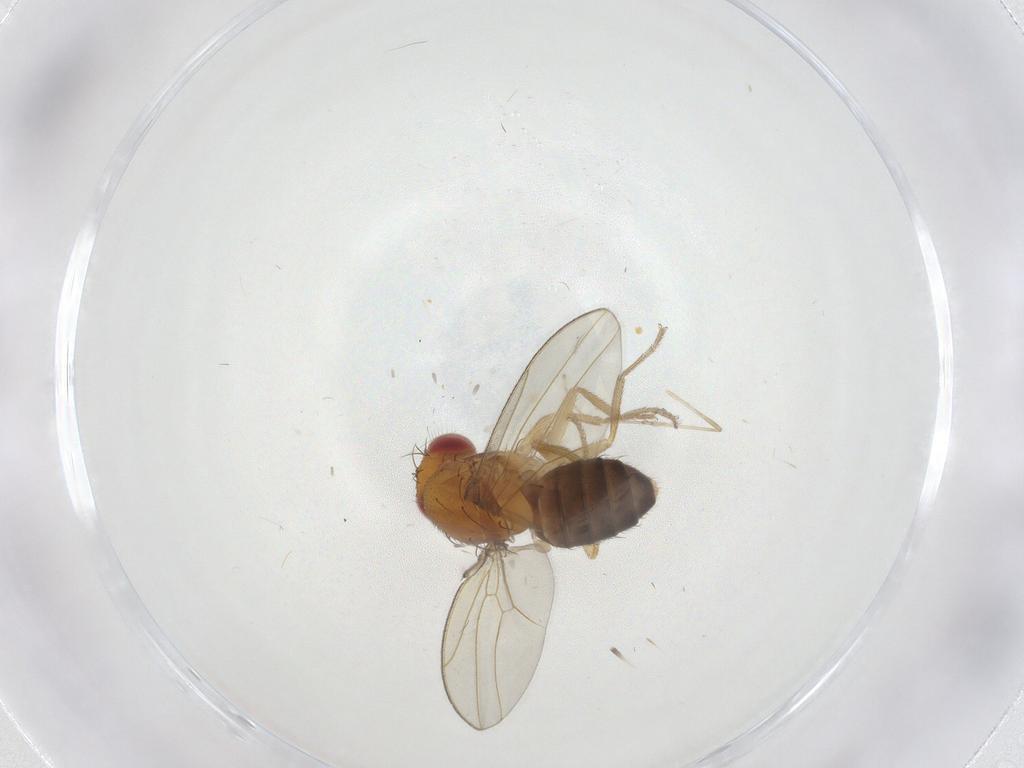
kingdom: Animalia
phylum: Arthropoda
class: Insecta
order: Diptera
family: Drosophilidae
